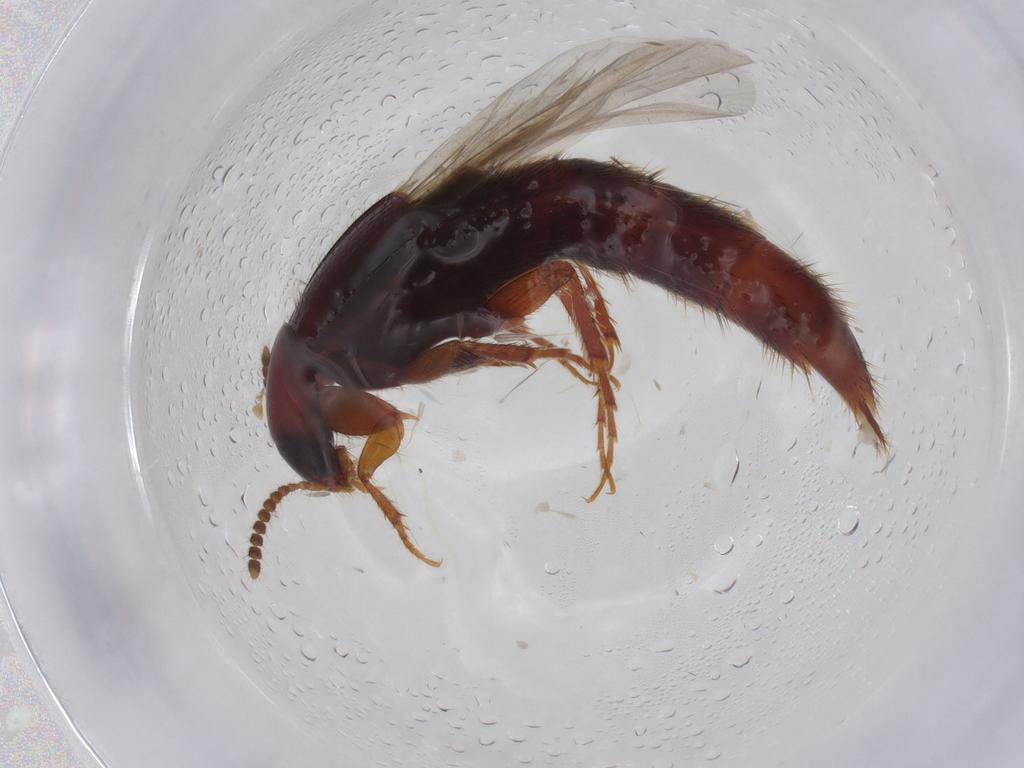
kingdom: Animalia
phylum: Arthropoda
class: Insecta
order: Coleoptera
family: Staphylinidae
